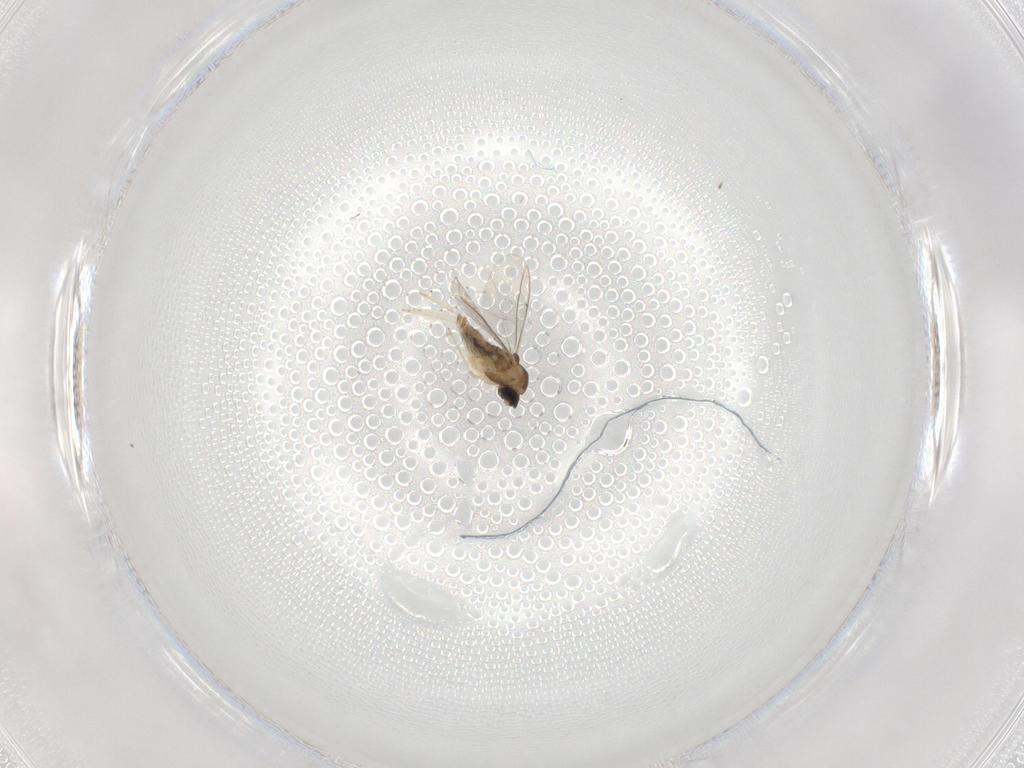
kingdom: Animalia
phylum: Arthropoda
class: Insecta
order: Diptera
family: Cecidomyiidae
